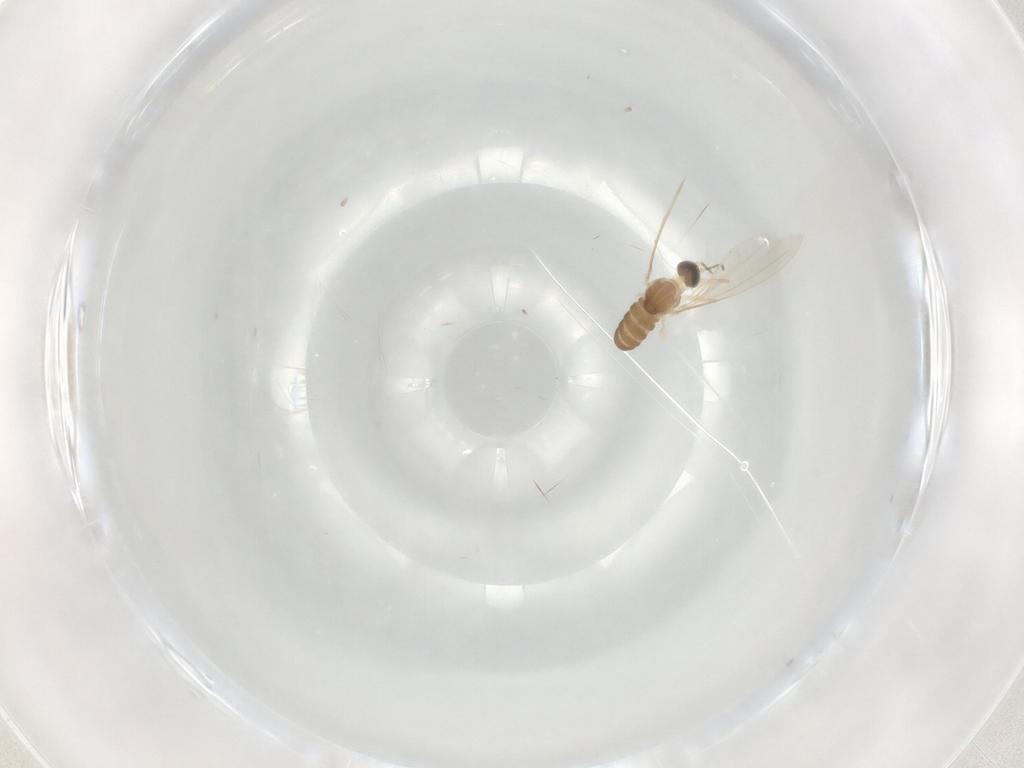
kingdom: Animalia
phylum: Arthropoda
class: Insecta
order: Diptera
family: Cecidomyiidae
